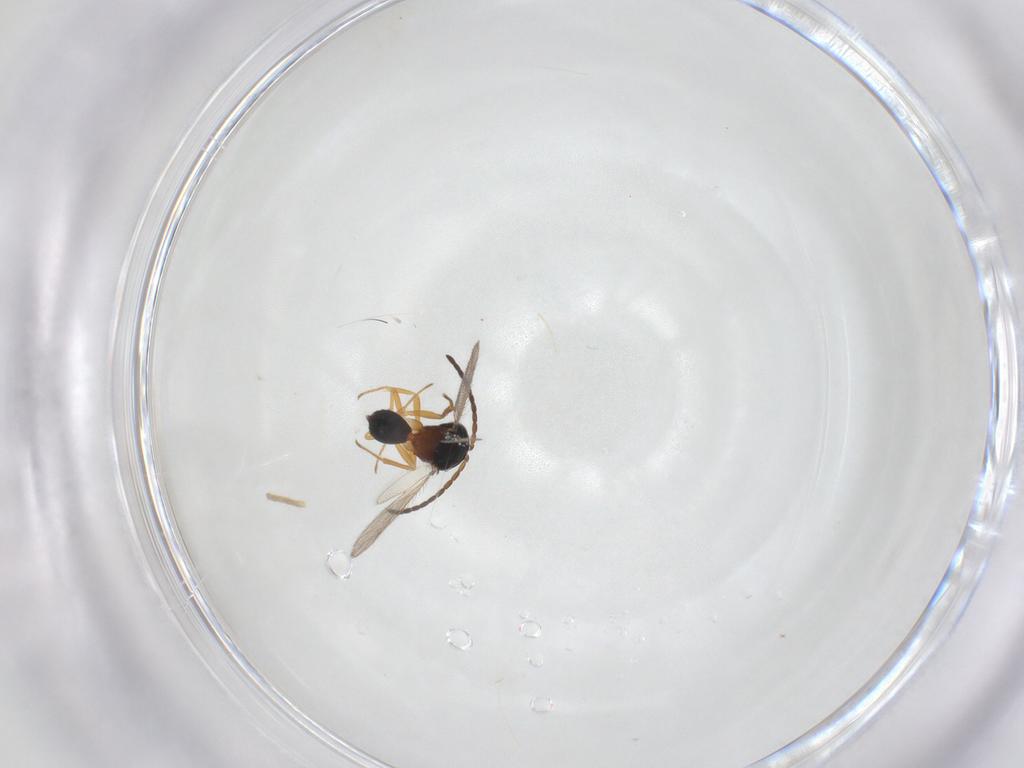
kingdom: Animalia
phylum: Arthropoda
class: Insecta
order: Hymenoptera
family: Diparidae
